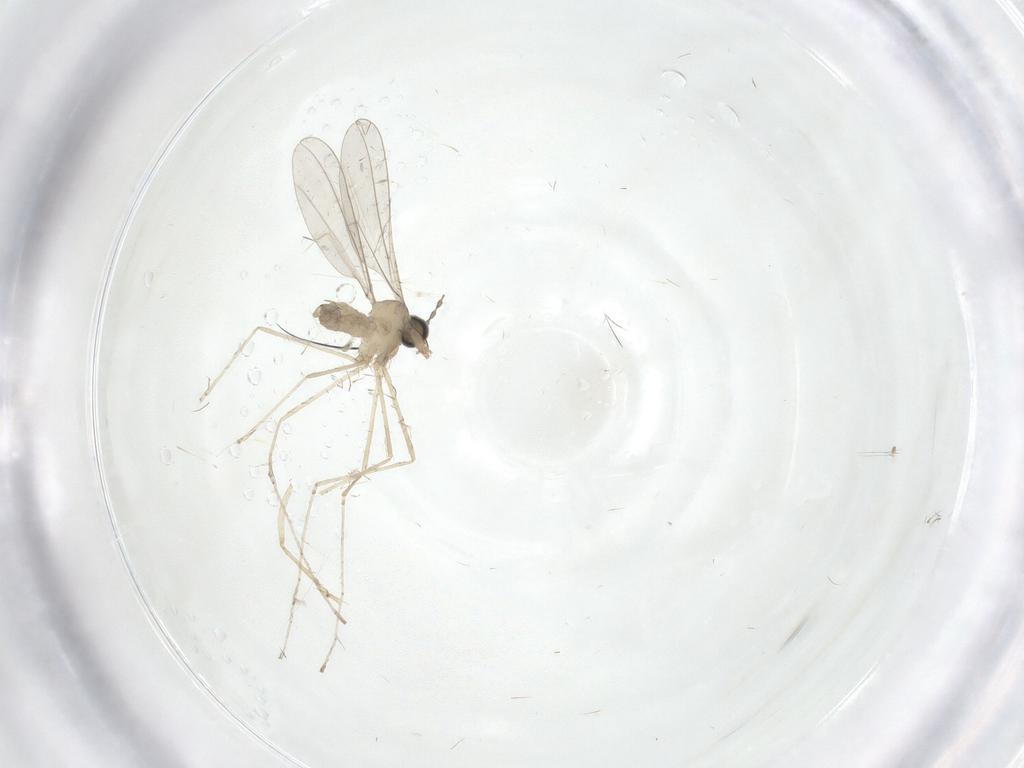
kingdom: Animalia
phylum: Arthropoda
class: Insecta
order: Diptera
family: Cecidomyiidae
